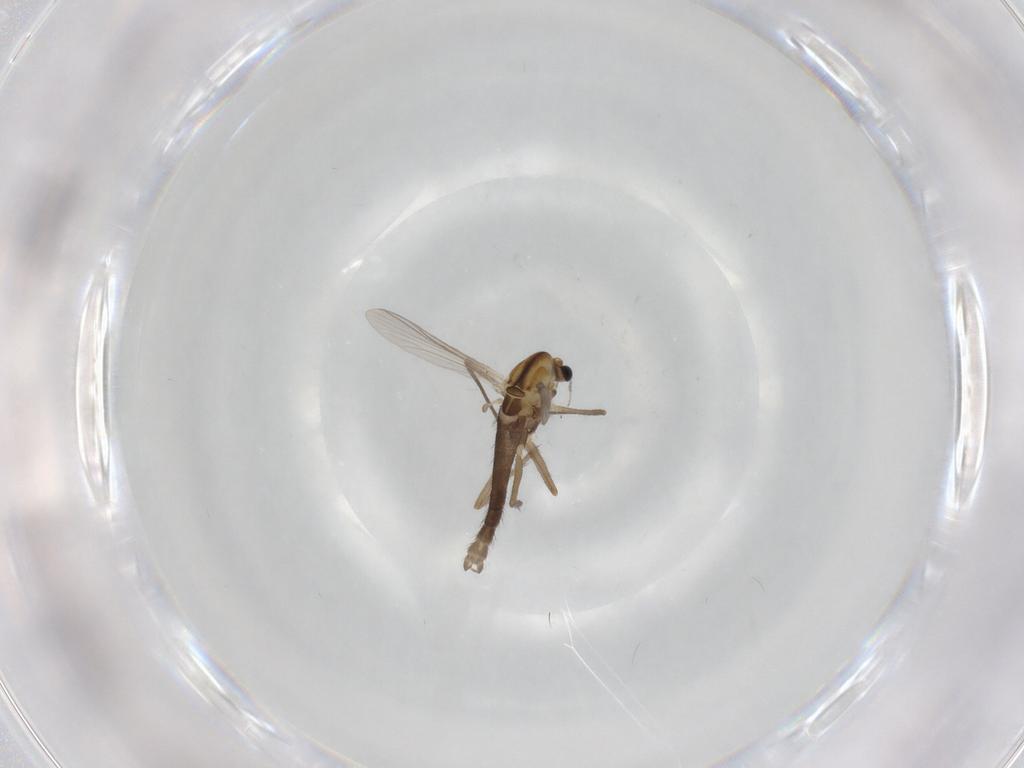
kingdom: Animalia
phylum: Arthropoda
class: Insecta
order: Diptera
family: Chironomidae
